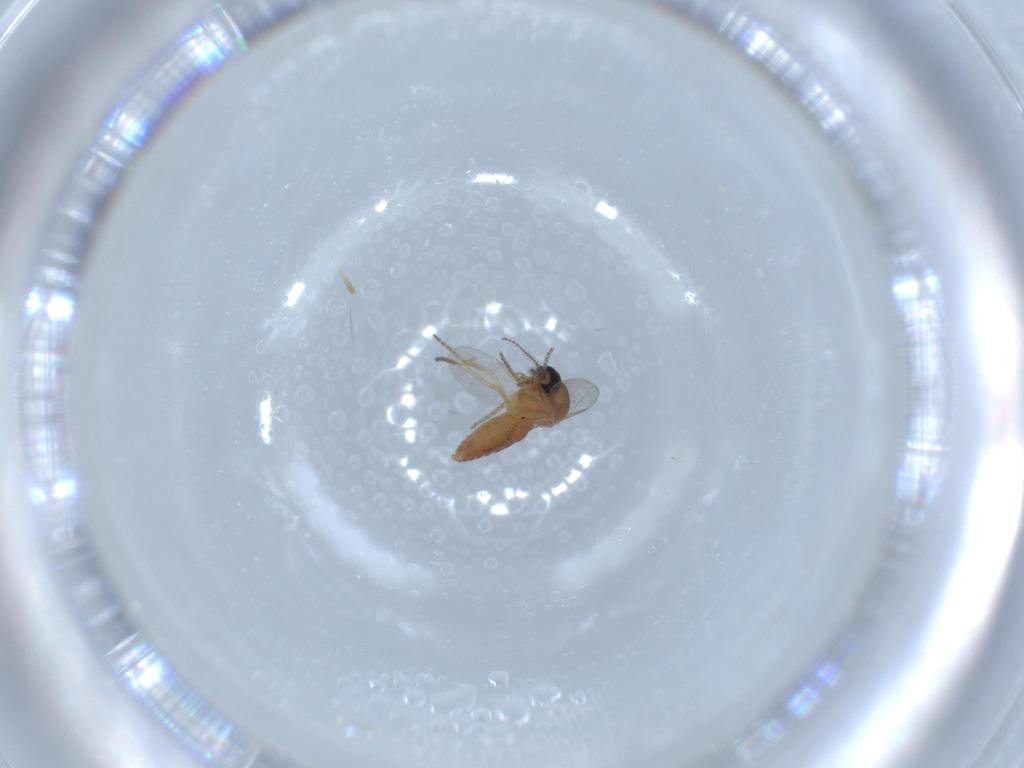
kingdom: Animalia
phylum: Arthropoda
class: Insecta
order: Diptera
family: Ceratopogonidae
